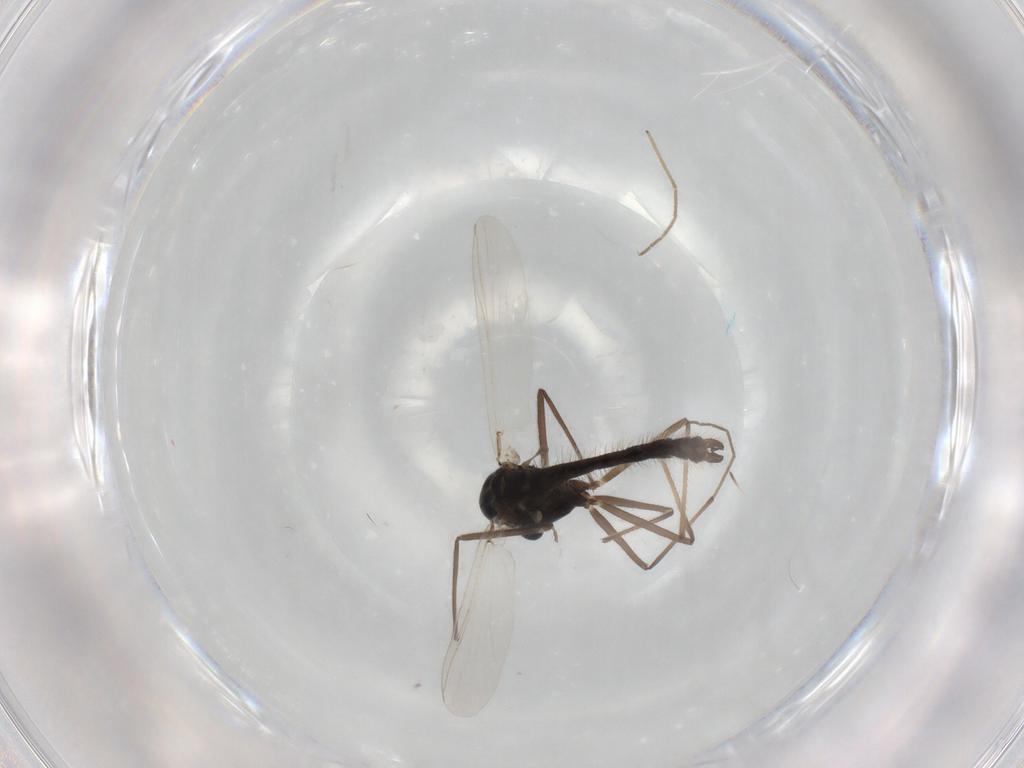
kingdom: Animalia
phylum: Arthropoda
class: Insecta
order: Diptera
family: Chironomidae
